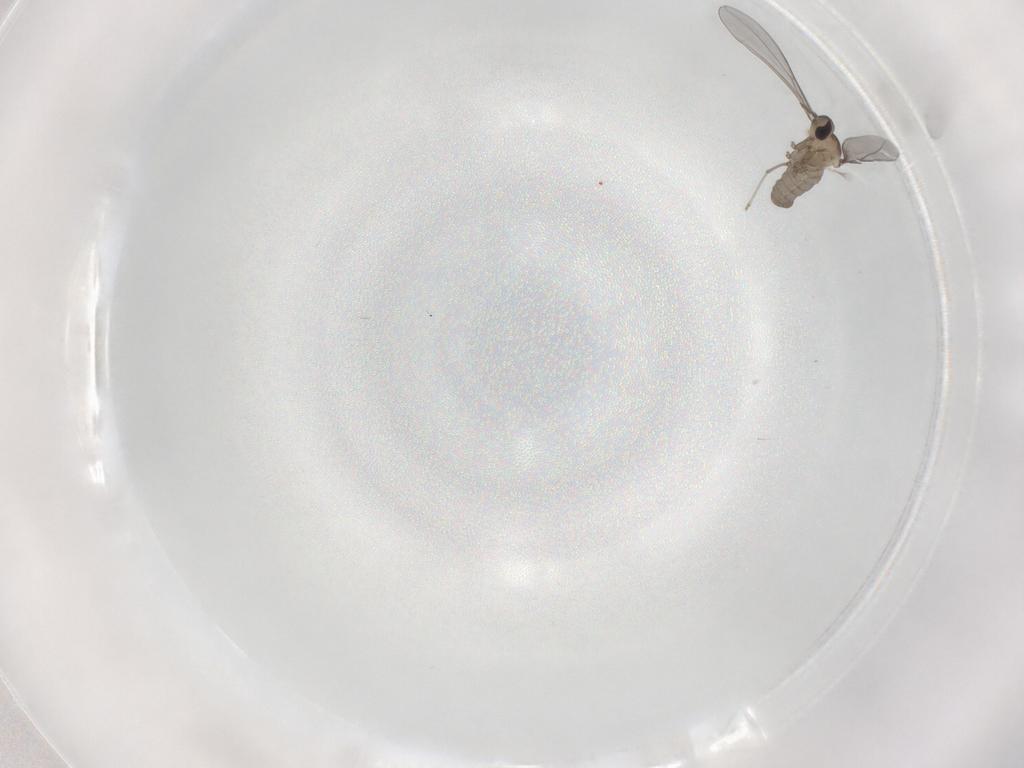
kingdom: Animalia
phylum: Arthropoda
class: Insecta
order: Diptera
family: Cecidomyiidae
